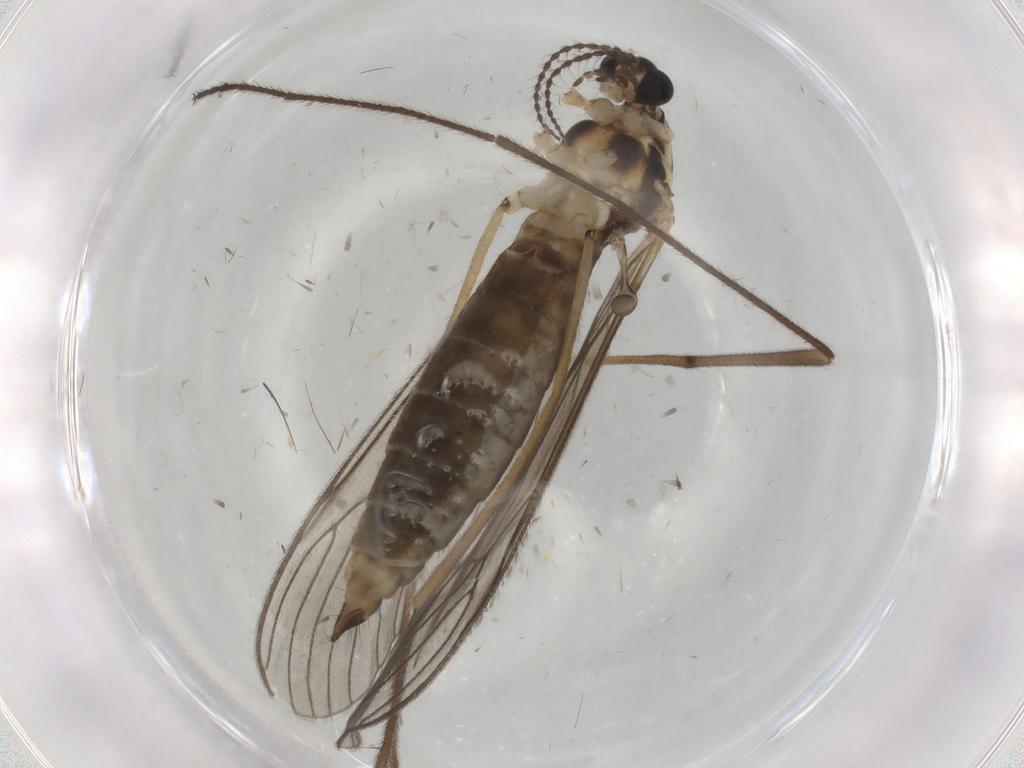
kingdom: Animalia
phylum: Arthropoda
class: Insecta
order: Diptera
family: Limoniidae
